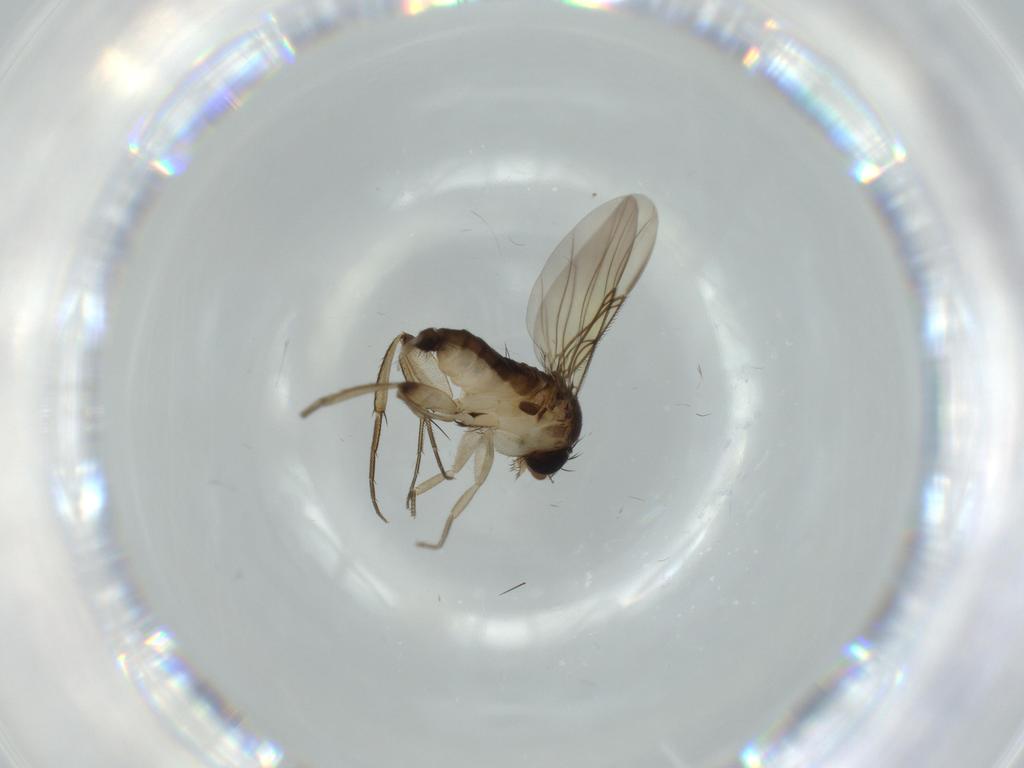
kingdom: Animalia
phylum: Arthropoda
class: Insecta
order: Diptera
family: Phoridae
